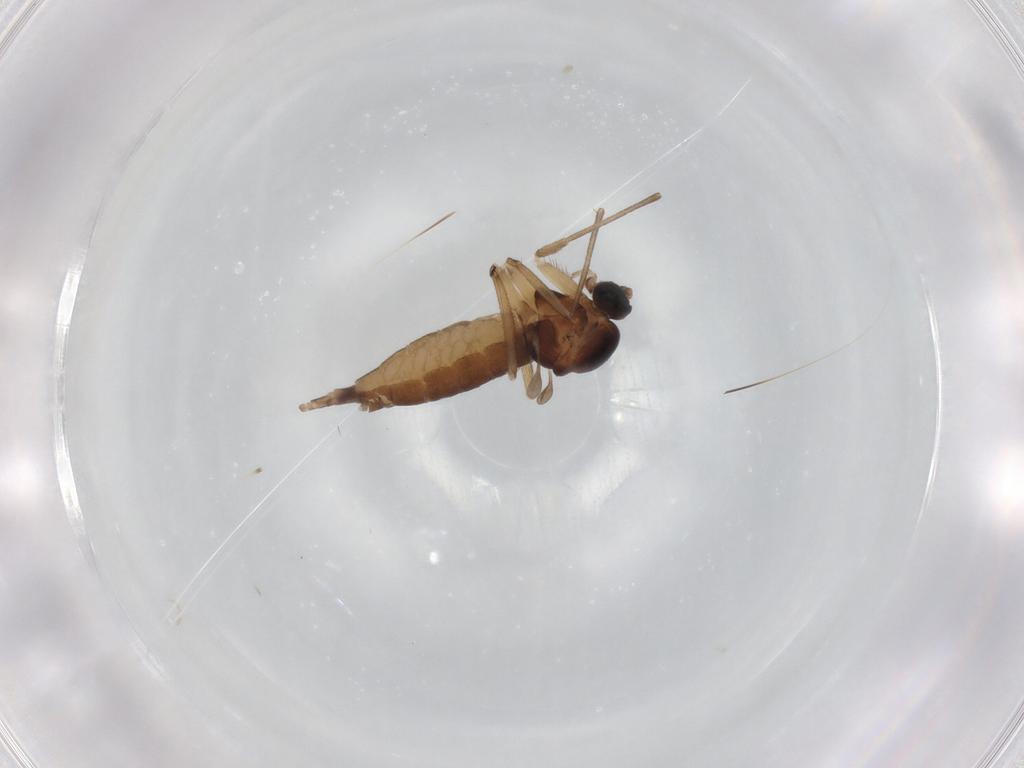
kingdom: Animalia
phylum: Arthropoda
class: Insecta
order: Diptera
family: Sciaridae
